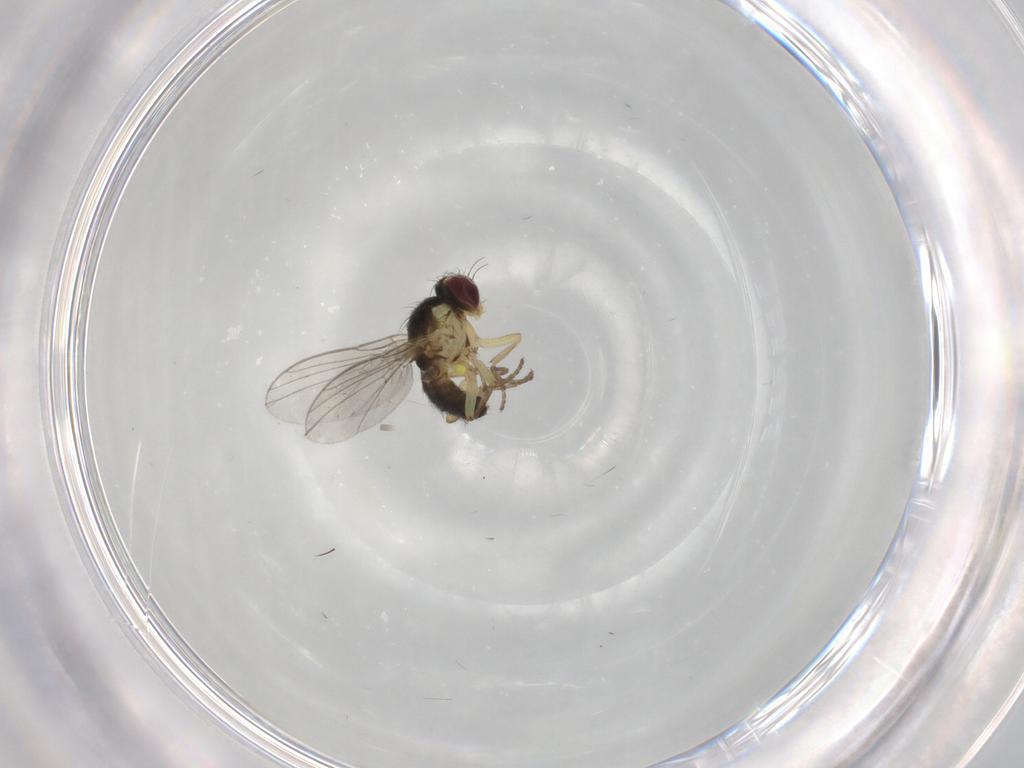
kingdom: Animalia
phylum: Arthropoda
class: Insecta
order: Diptera
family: Agromyzidae
